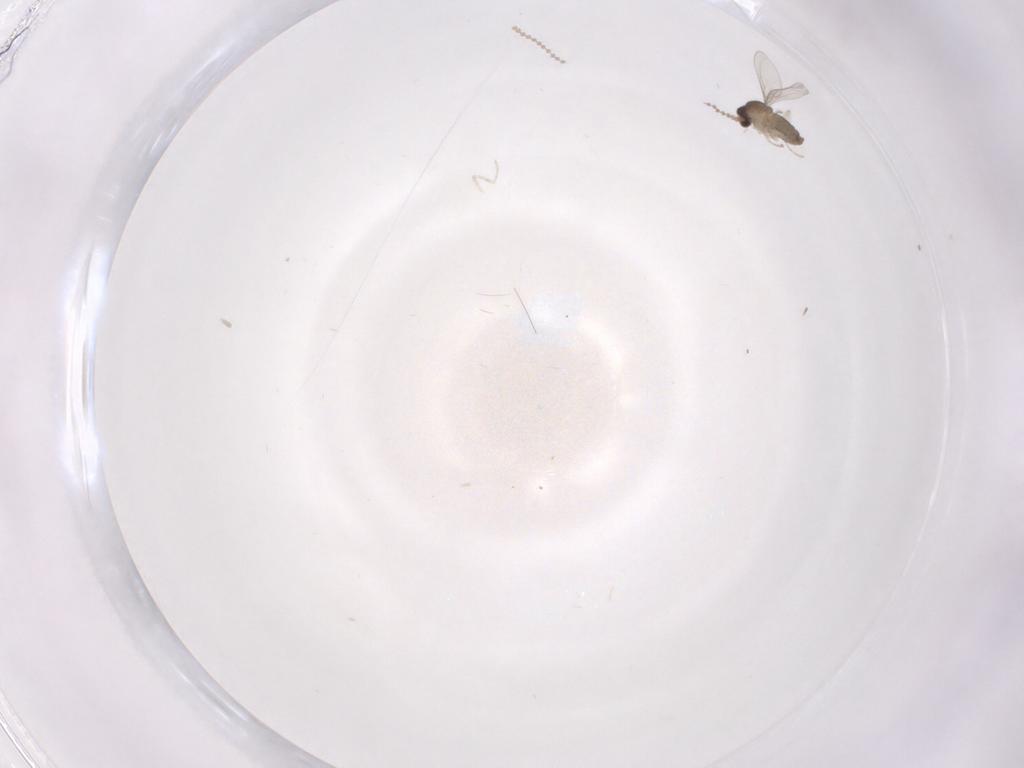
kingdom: Animalia
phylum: Arthropoda
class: Insecta
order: Diptera
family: Cecidomyiidae
